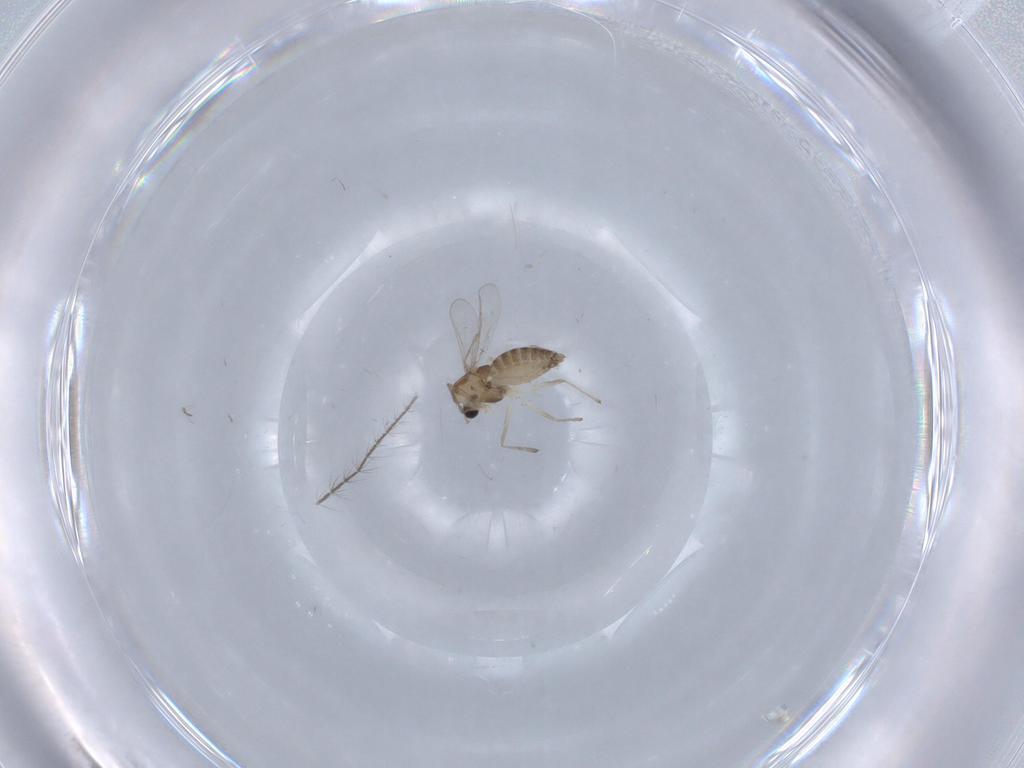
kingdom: Animalia
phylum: Arthropoda
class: Insecta
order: Diptera
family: Chironomidae
